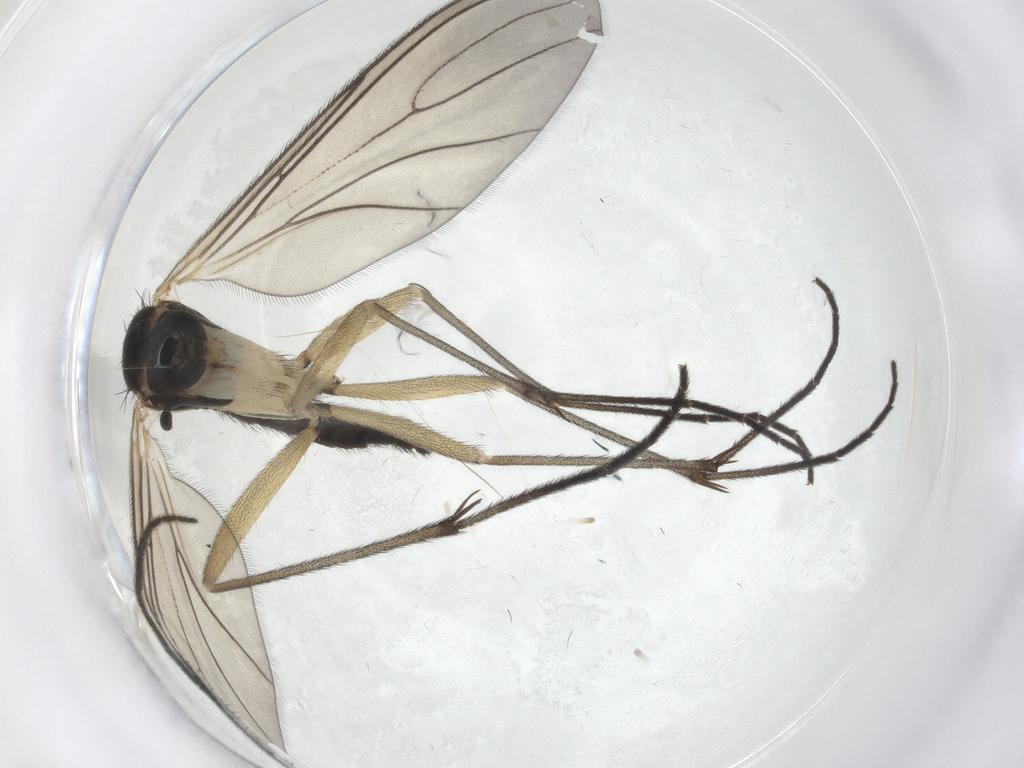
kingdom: Animalia
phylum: Arthropoda
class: Insecta
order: Diptera
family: Sciaridae
